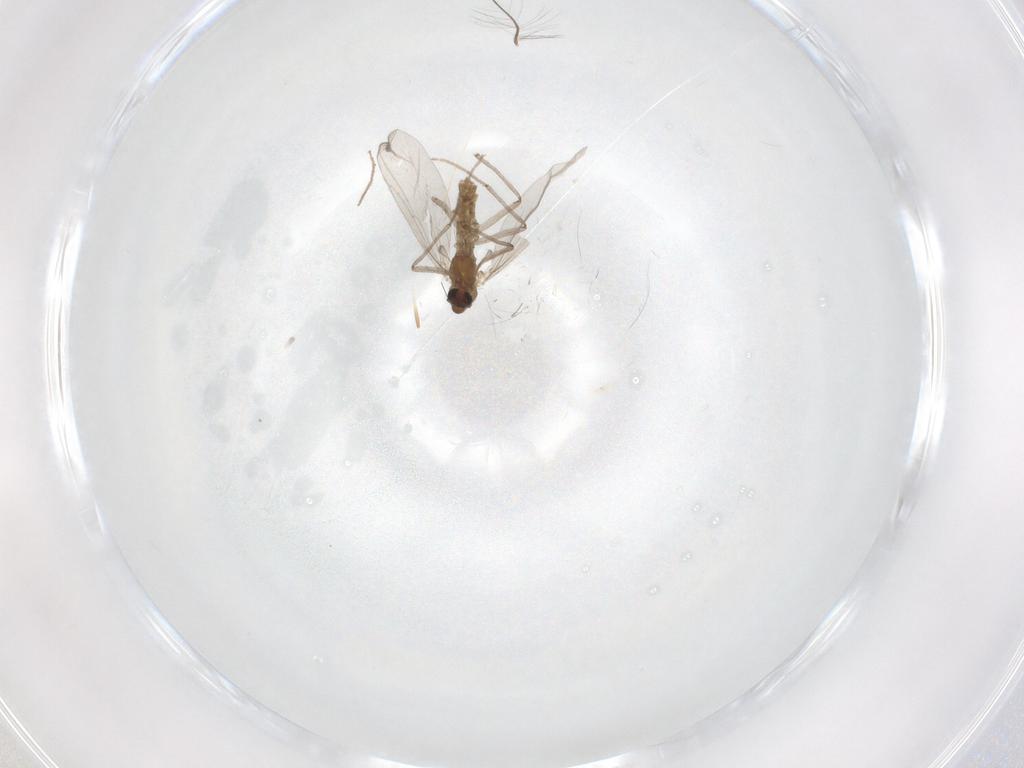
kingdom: Animalia
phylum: Arthropoda
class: Insecta
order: Diptera
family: Chironomidae
